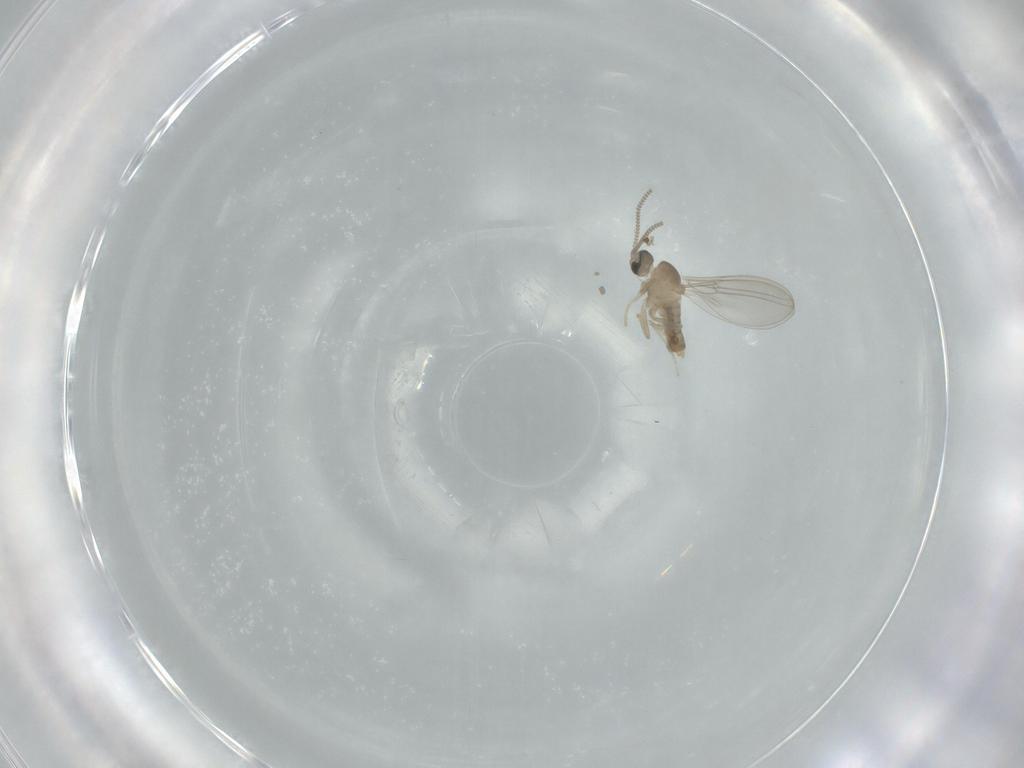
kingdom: Animalia
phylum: Arthropoda
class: Insecta
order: Diptera
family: Cecidomyiidae
